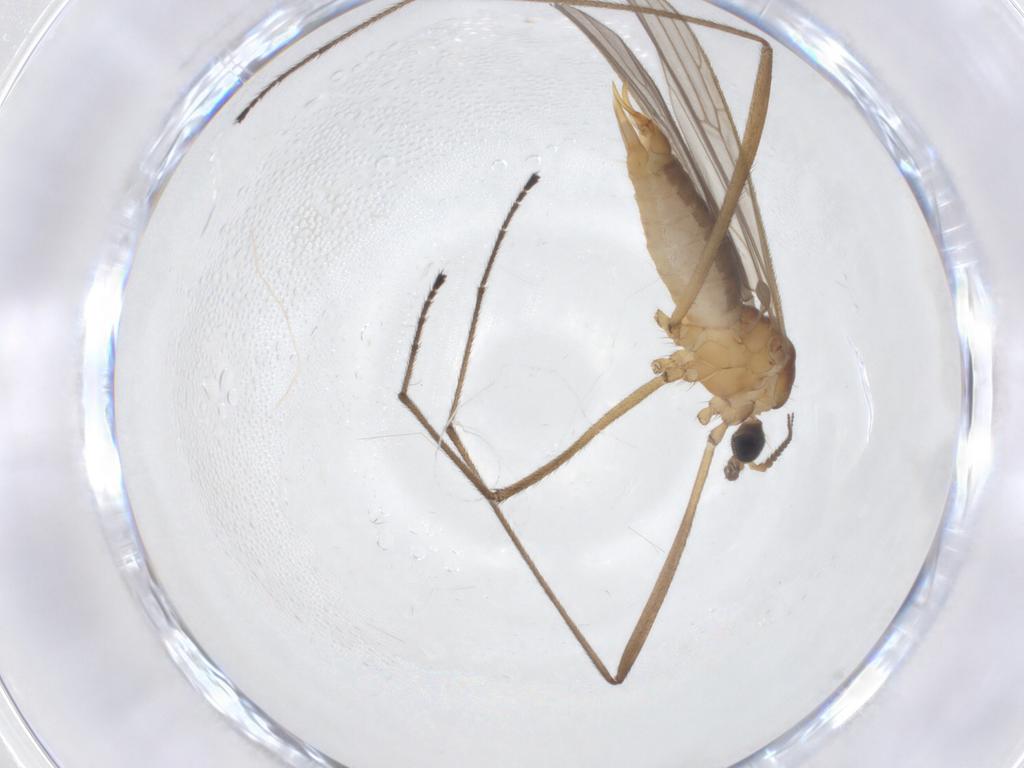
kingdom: Animalia
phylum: Arthropoda
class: Insecta
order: Diptera
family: Limoniidae
